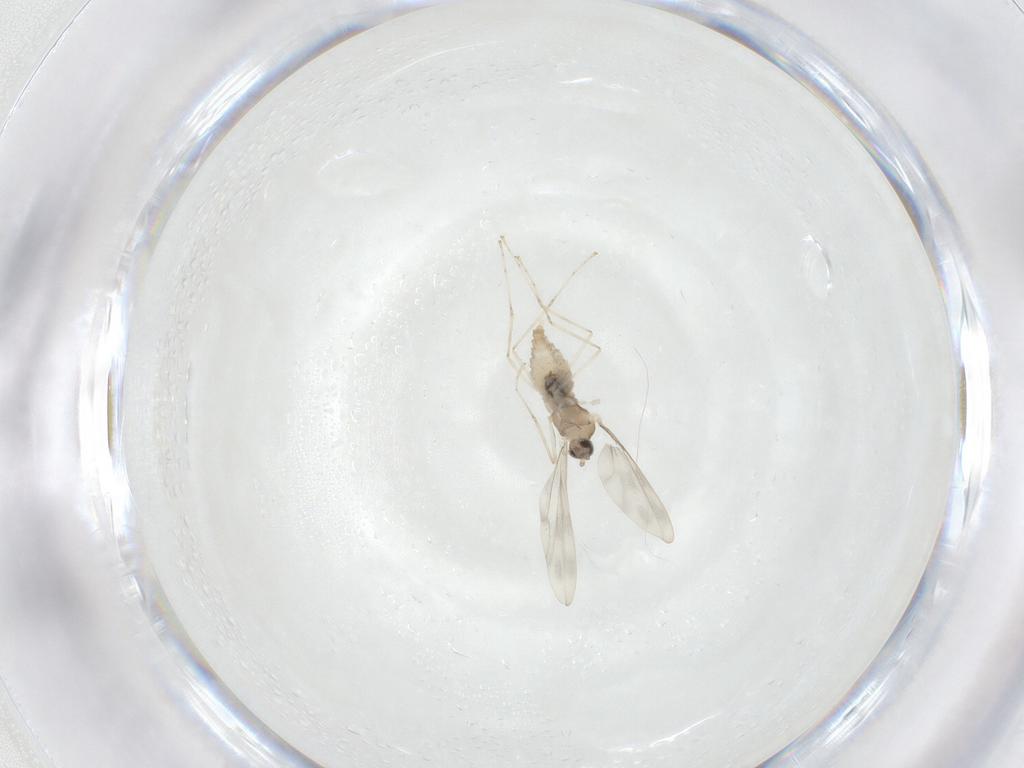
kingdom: Animalia
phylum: Arthropoda
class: Insecta
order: Diptera
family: Cecidomyiidae
